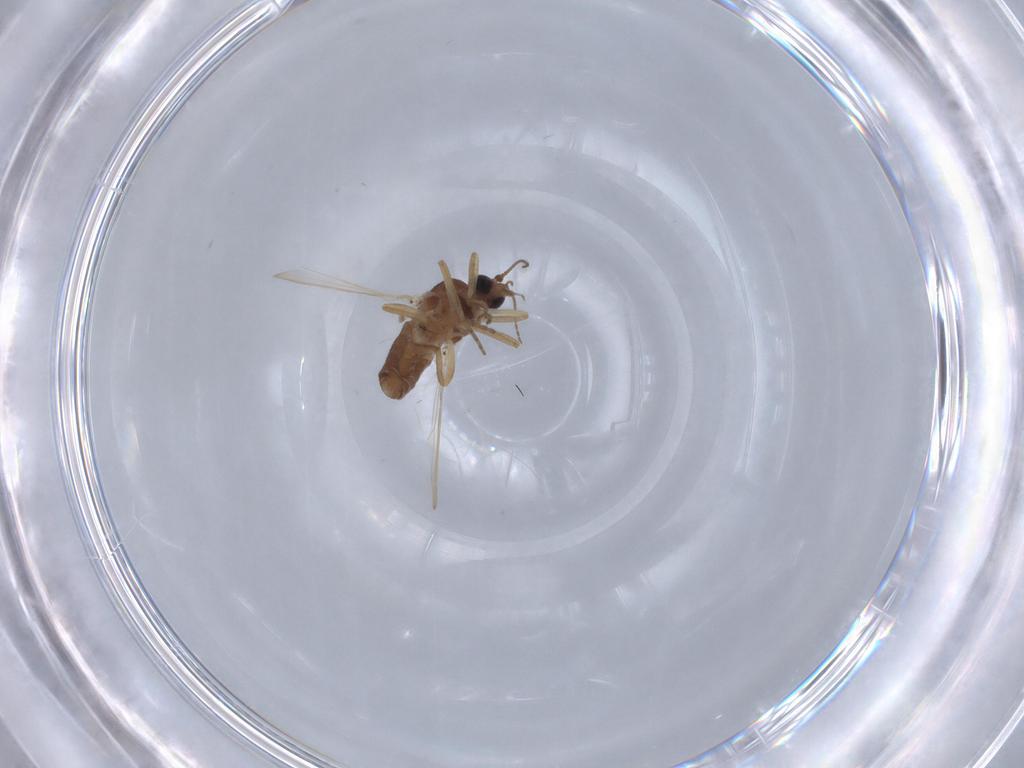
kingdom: Animalia
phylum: Arthropoda
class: Insecta
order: Diptera
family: Ceratopogonidae
